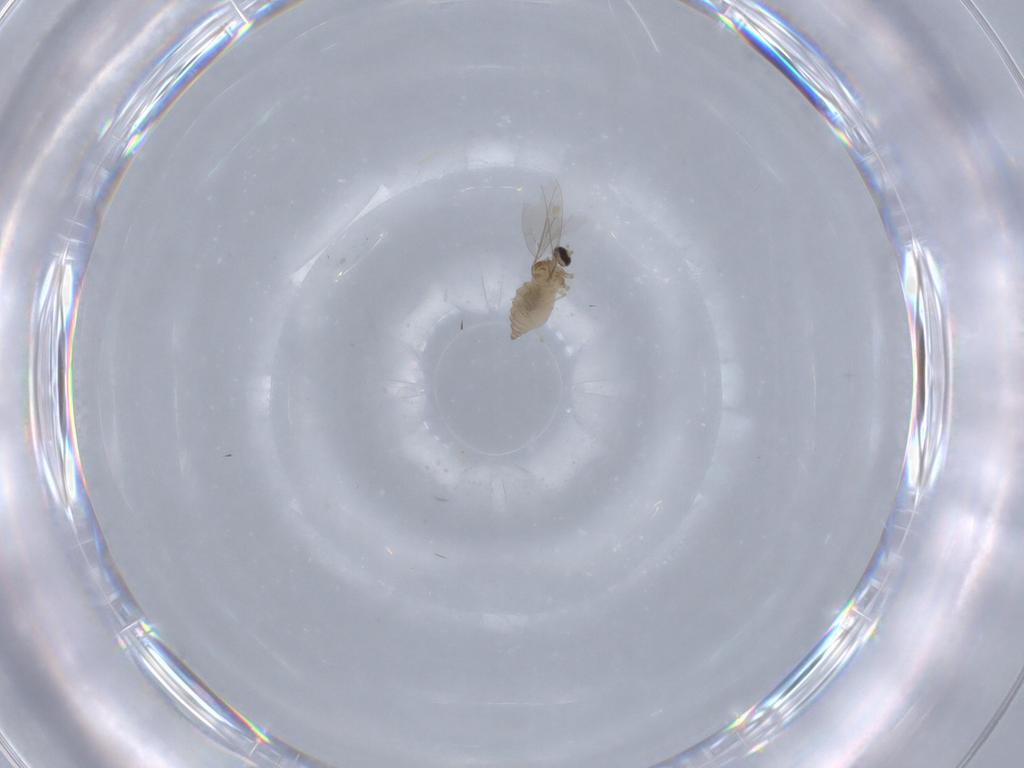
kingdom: Animalia
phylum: Arthropoda
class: Insecta
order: Diptera
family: Cecidomyiidae
